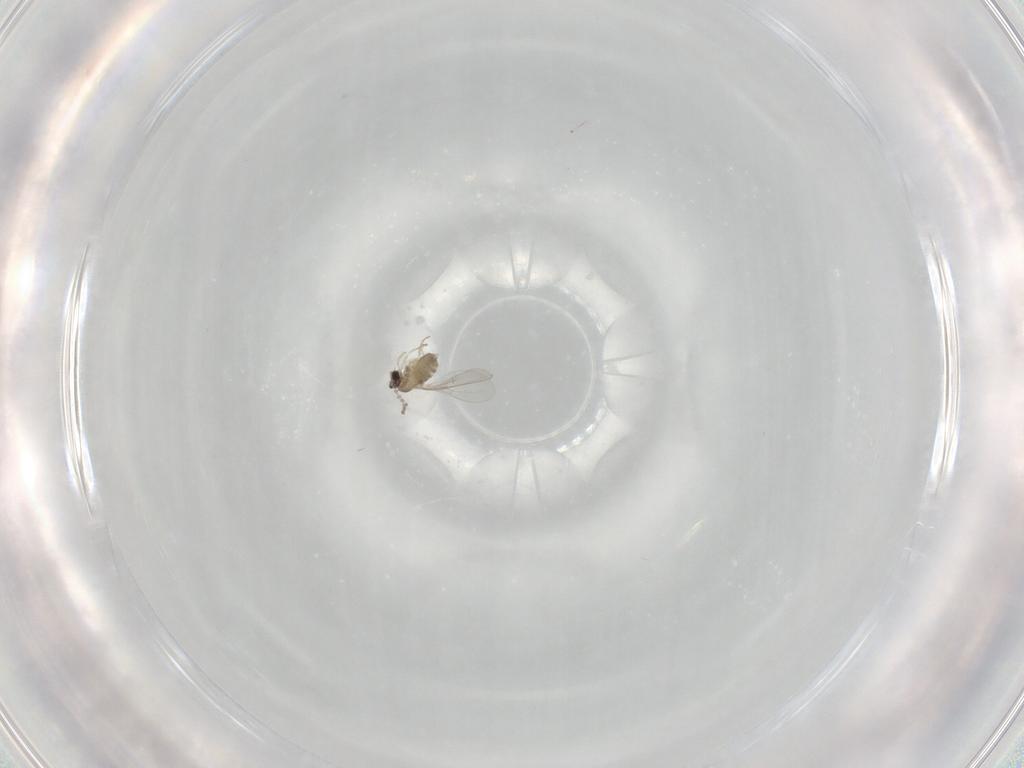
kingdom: Animalia
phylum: Arthropoda
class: Insecta
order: Diptera
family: Cecidomyiidae
